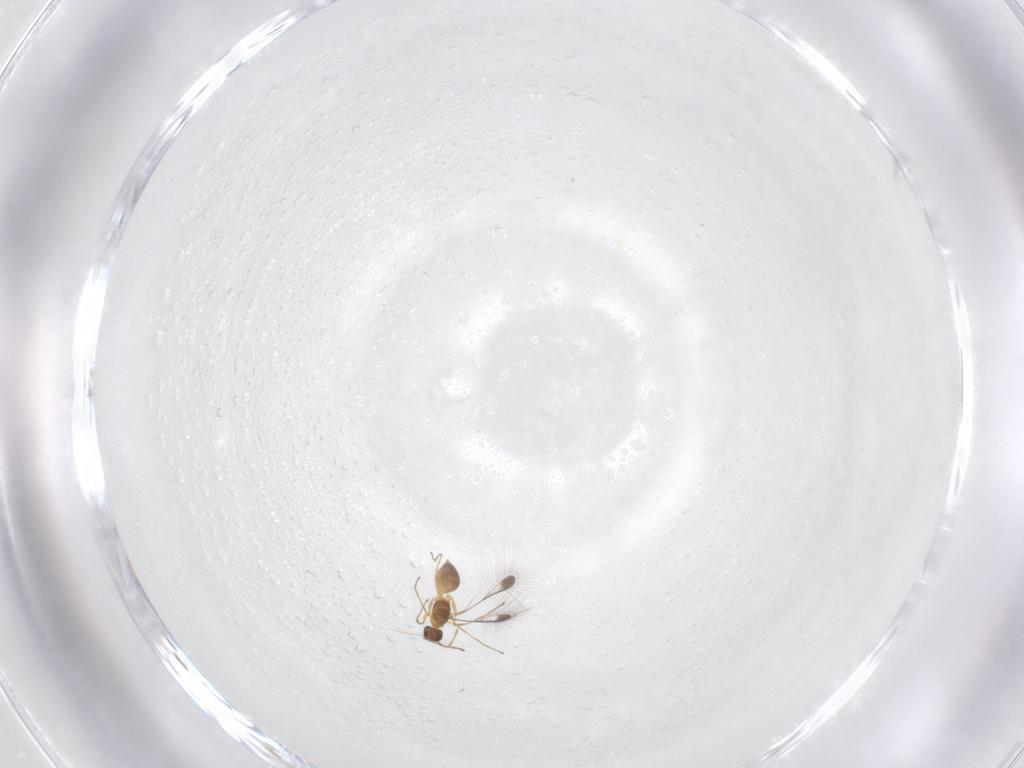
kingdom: Animalia
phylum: Arthropoda
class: Insecta
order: Hymenoptera
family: Mymaridae
